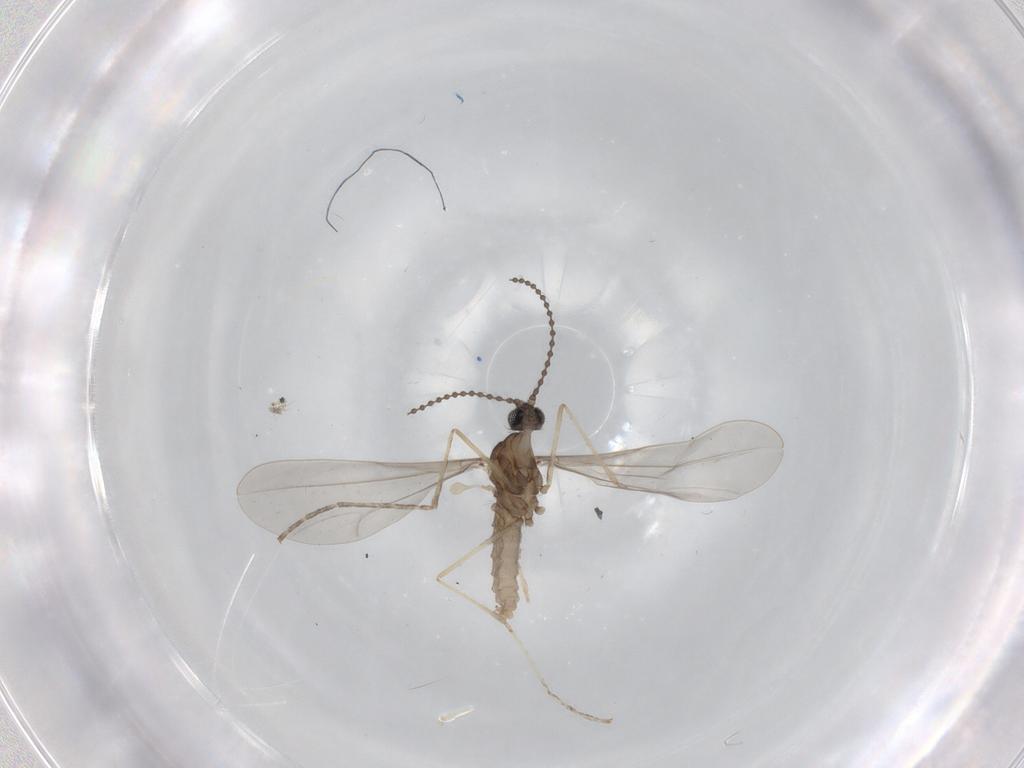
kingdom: Animalia
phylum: Arthropoda
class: Insecta
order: Diptera
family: Cecidomyiidae
